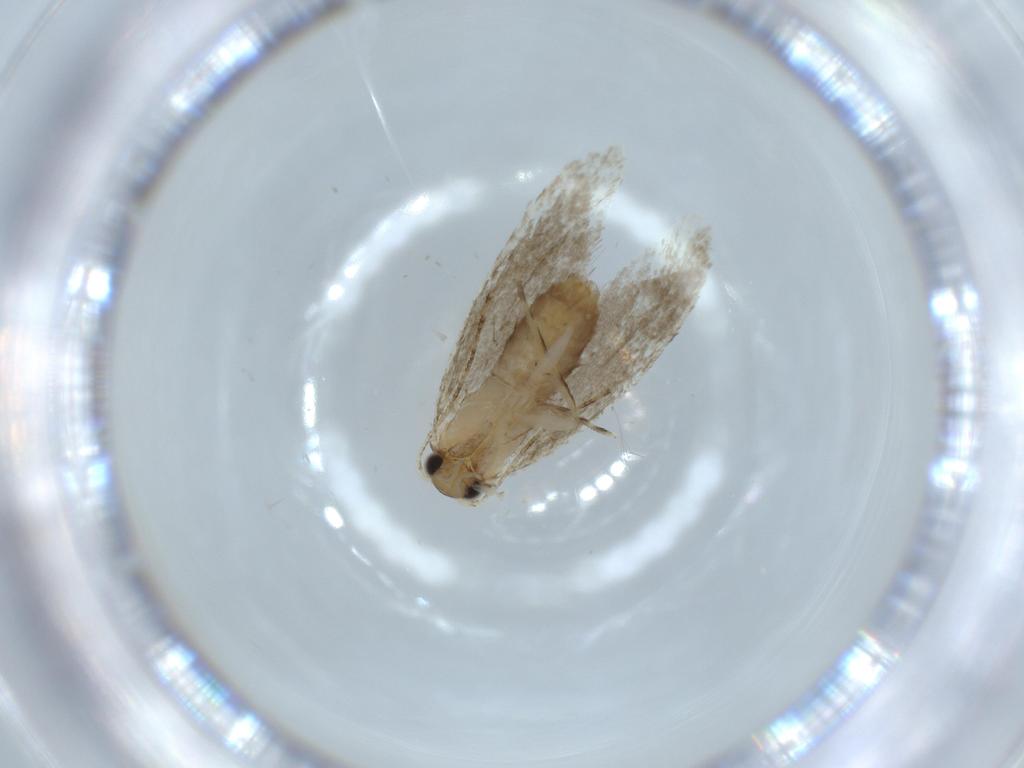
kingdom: Animalia
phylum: Arthropoda
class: Insecta
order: Lepidoptera
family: Tineidae
